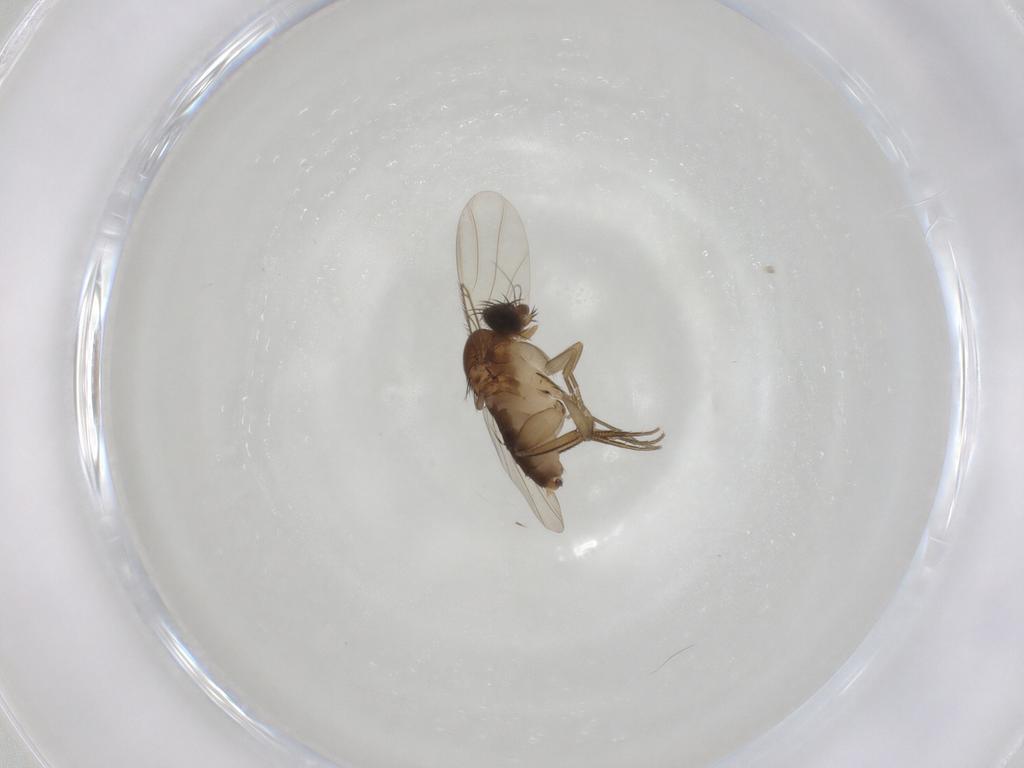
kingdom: Animalia
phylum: Arthropoda
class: Insecta
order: Diptera
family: Phoridae
